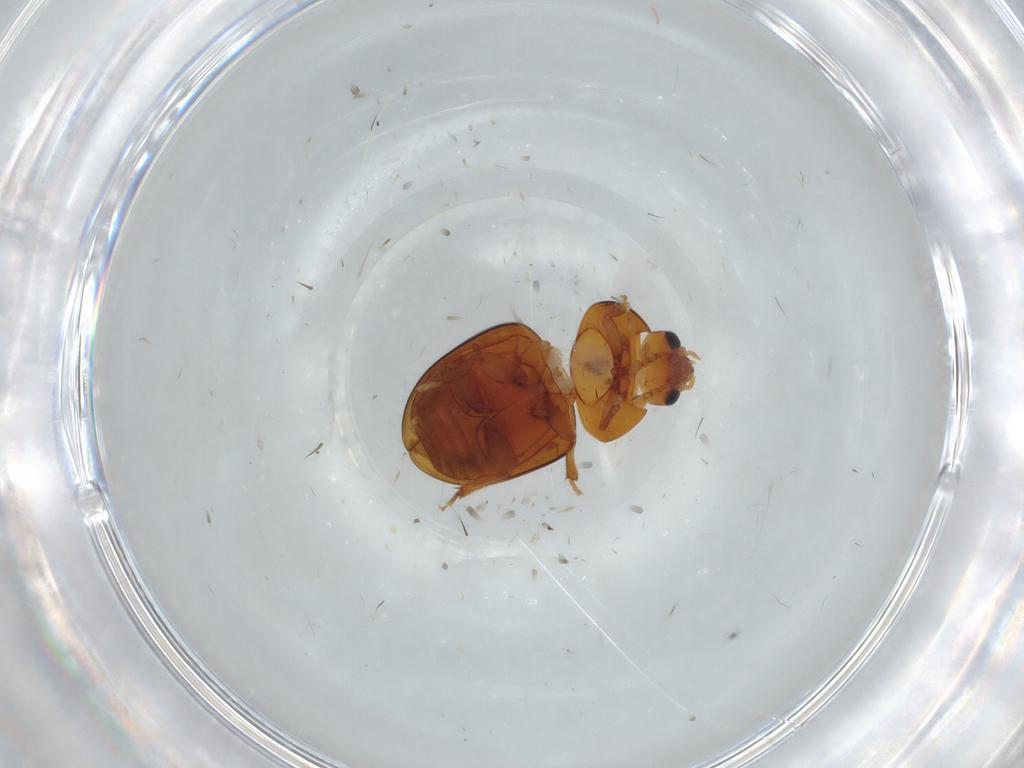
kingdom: Animalia
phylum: Arthropoda
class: Insecta
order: Coleoptera
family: Phalacridae
